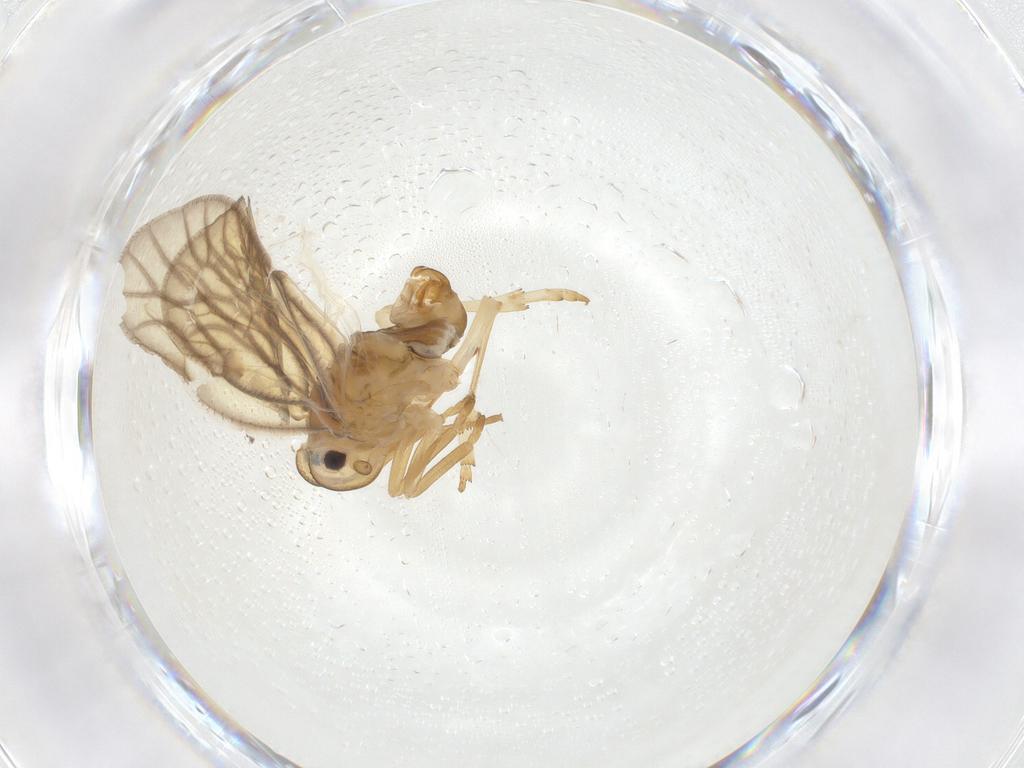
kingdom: Animalia
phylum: Arthropoda
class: Insecta
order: Hemiptera
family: Meenoplidae
